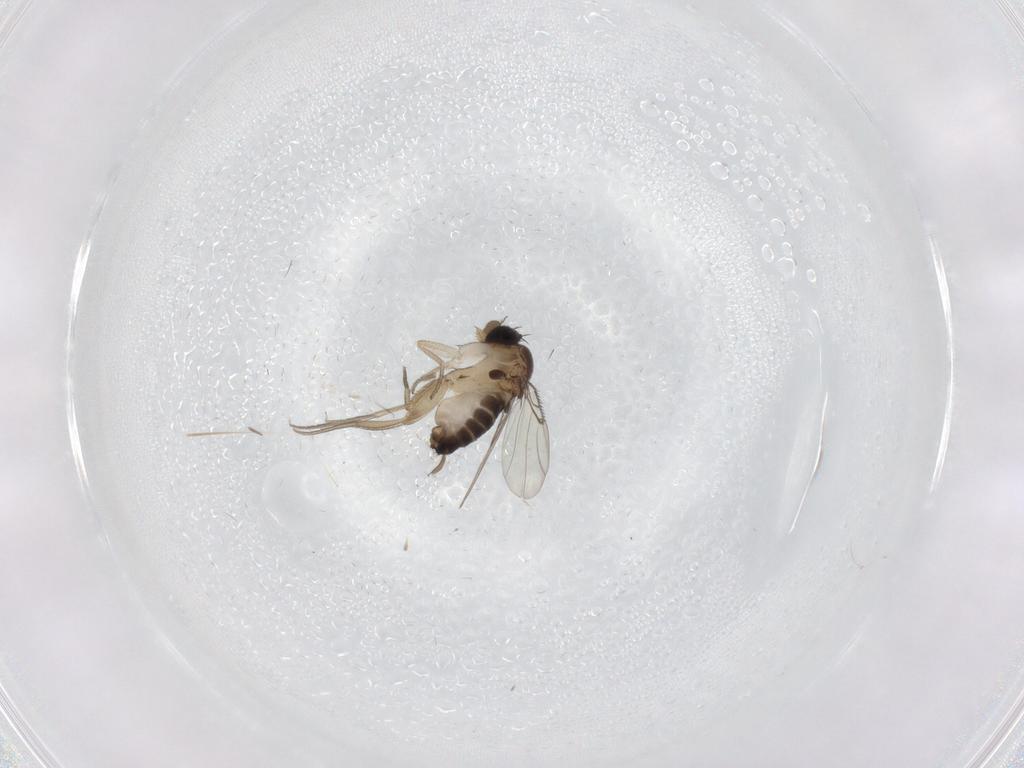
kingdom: Animalia
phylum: Arthropoda
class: Insecta
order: Diptera
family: Phoridae
